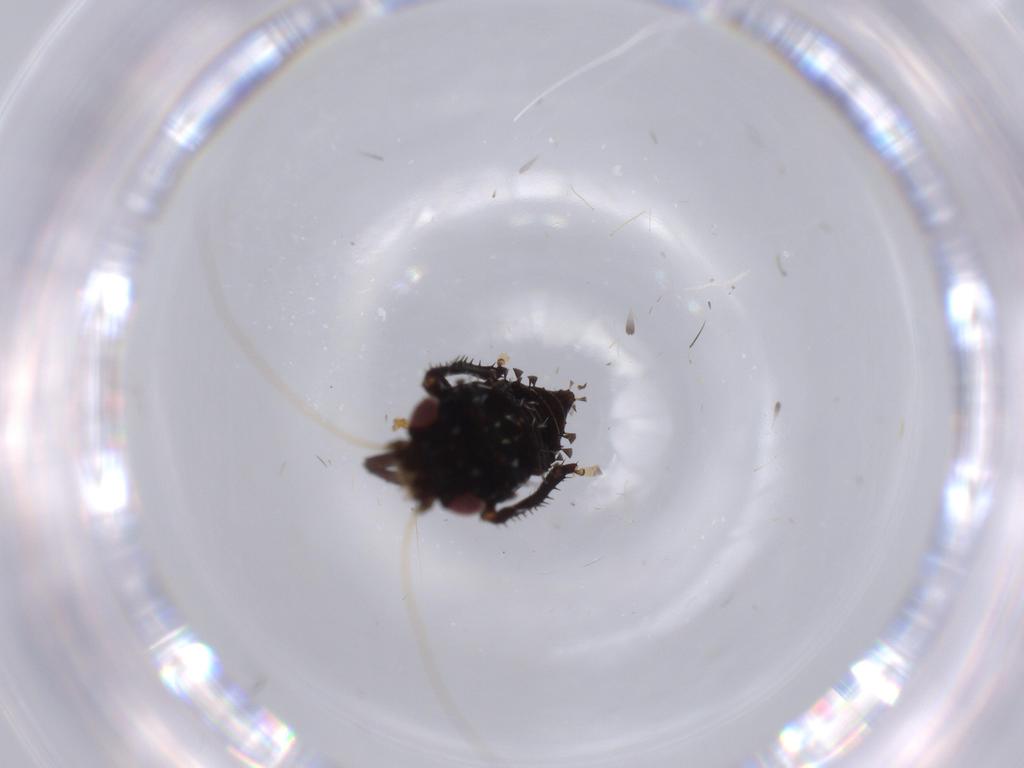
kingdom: Animalia
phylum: Arthropoda
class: Insecta
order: Hemiptera
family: Cicadellidae
